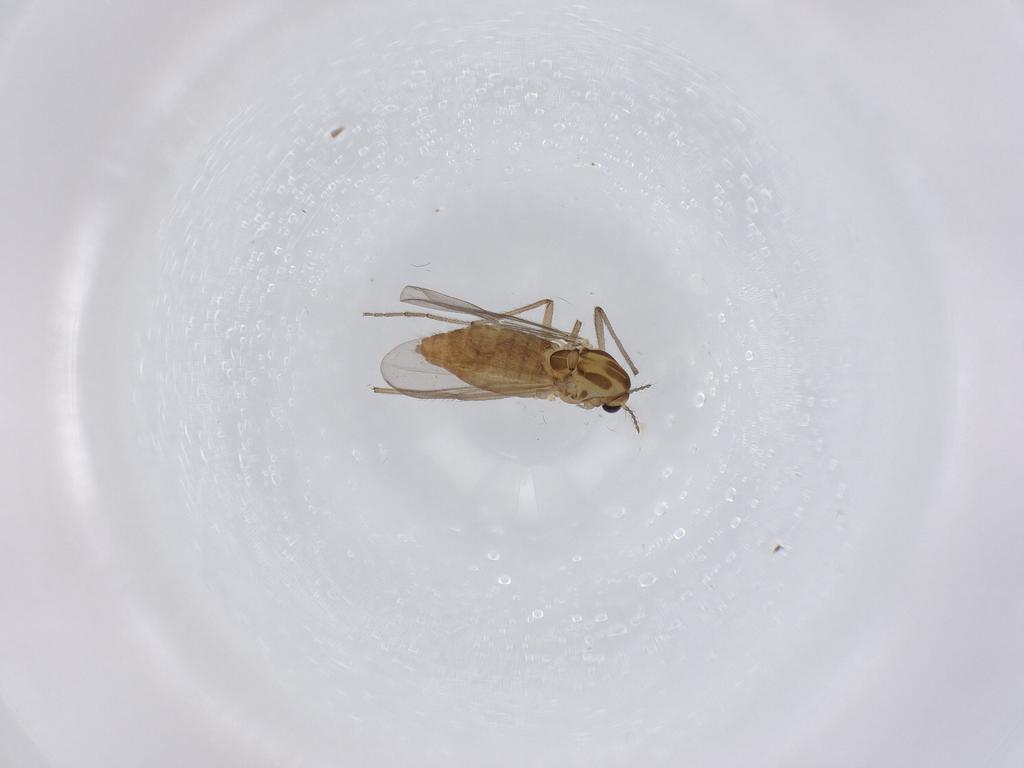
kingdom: Animalia
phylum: Arthropoda
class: Insecta
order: Diptera
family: Chironomidae
